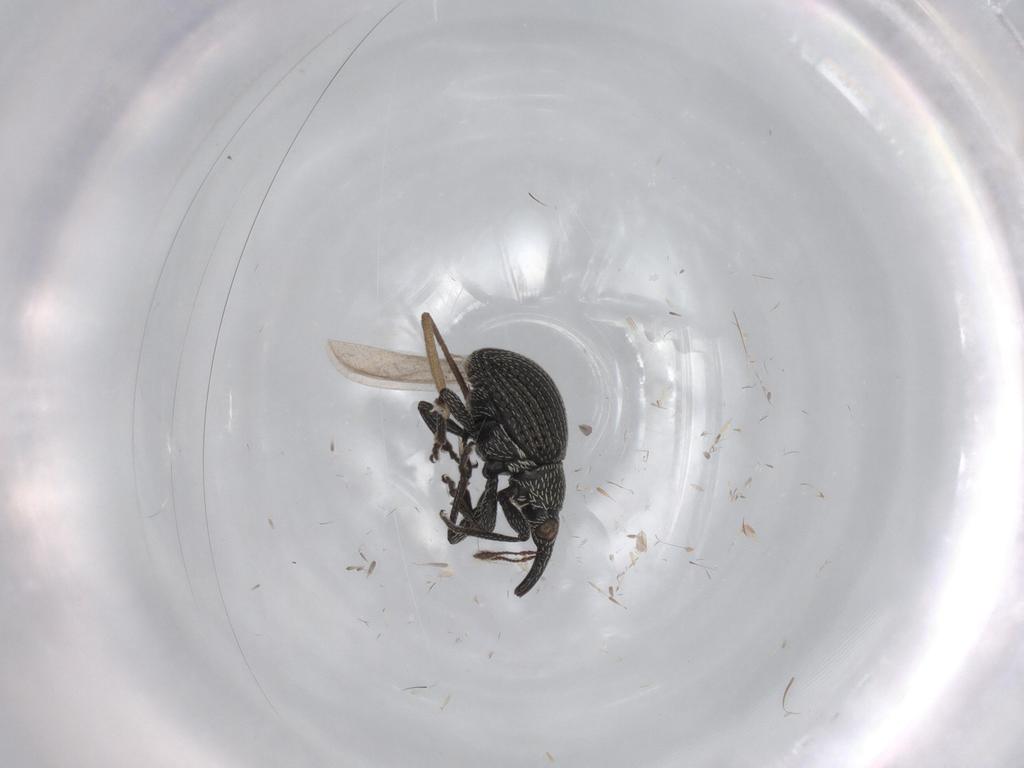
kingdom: Animalia
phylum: Arthropoda
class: Insecta
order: Coleoptera
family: Brentidae
